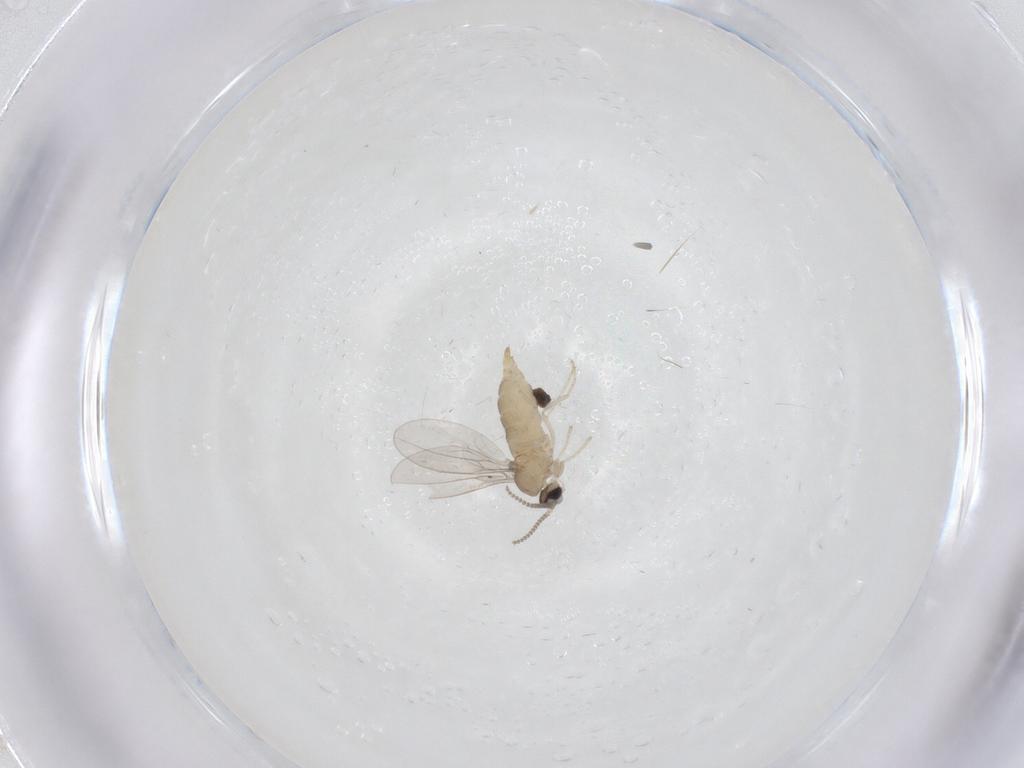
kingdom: Animalia
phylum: Arthropoda
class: Insecta
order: Diptera
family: Cecidomyiidae
